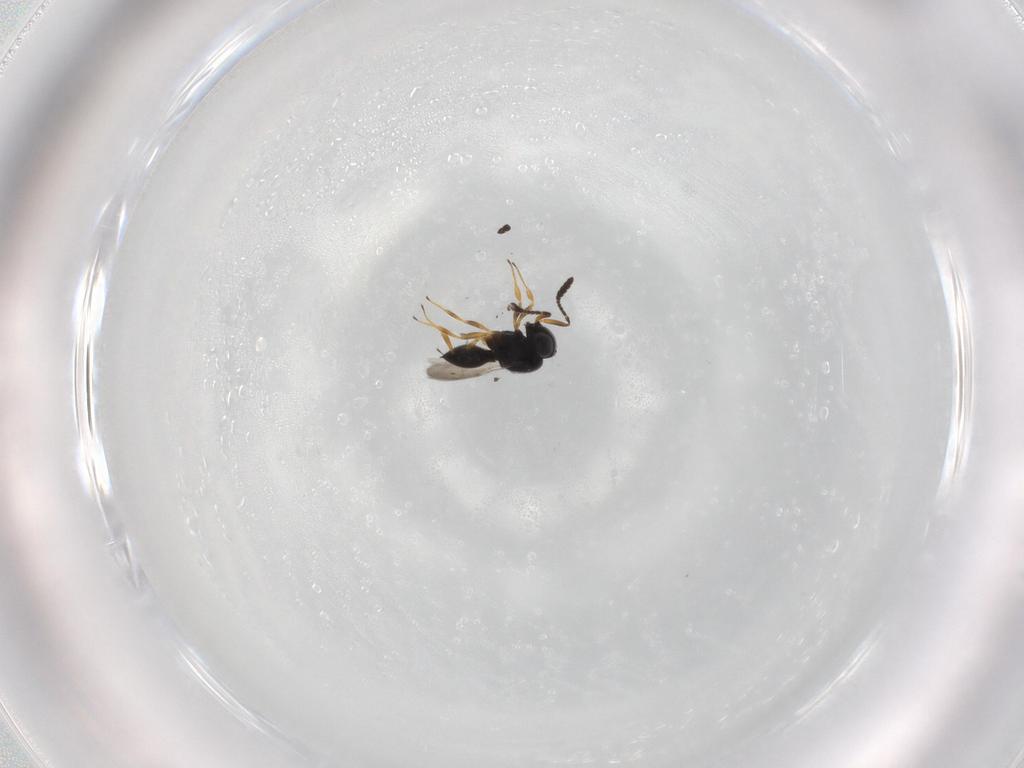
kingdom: Animalia
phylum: Arthropoda
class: Insecta
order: Hymenoptera
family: Scelionidae
